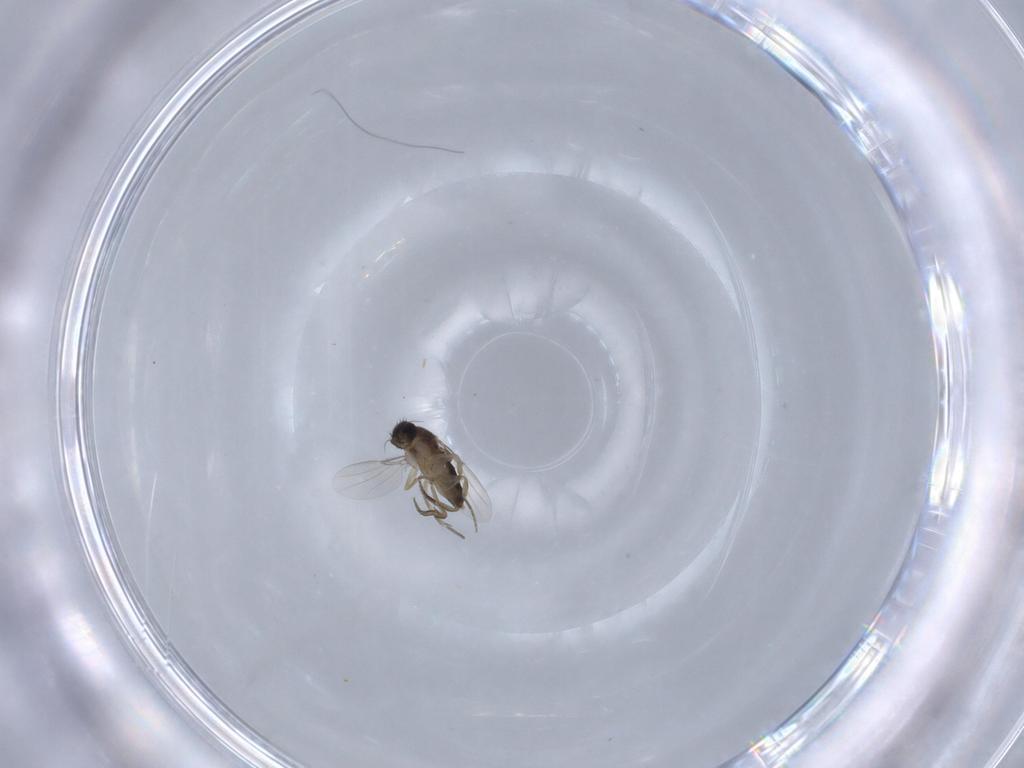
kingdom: Animalia
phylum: Arthropoda
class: Insecta
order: Diptera
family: Phoridae
